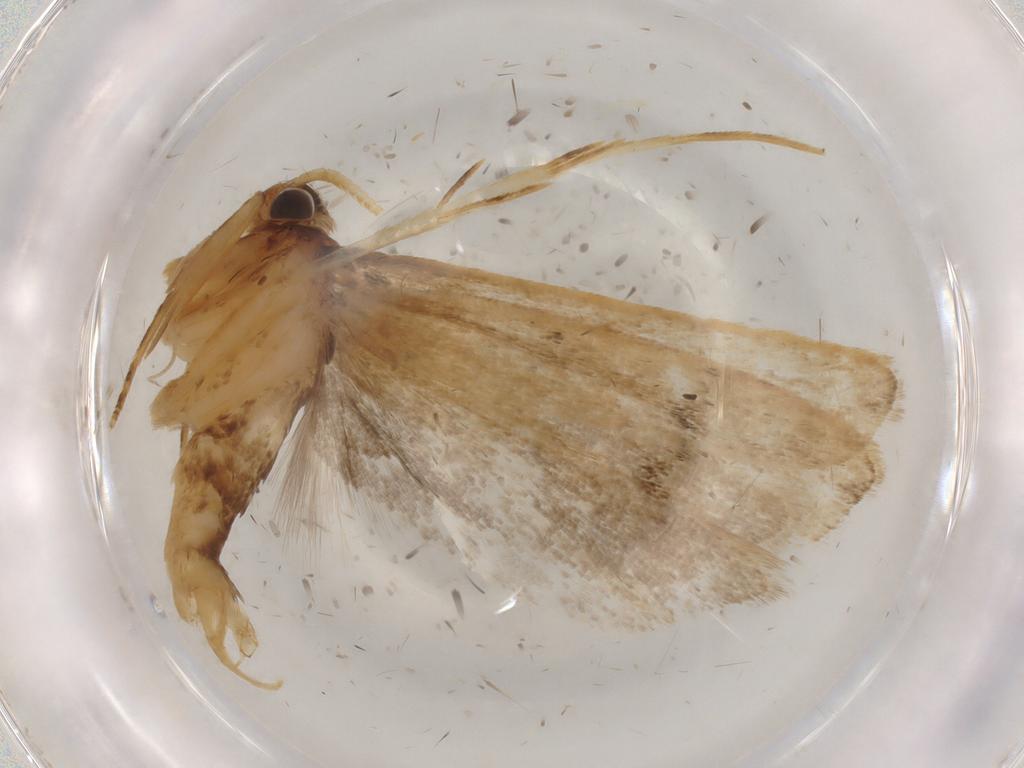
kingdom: Animalia
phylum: Arthropoda
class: Insecta
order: Lepidoptera
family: Lecithoceridae
